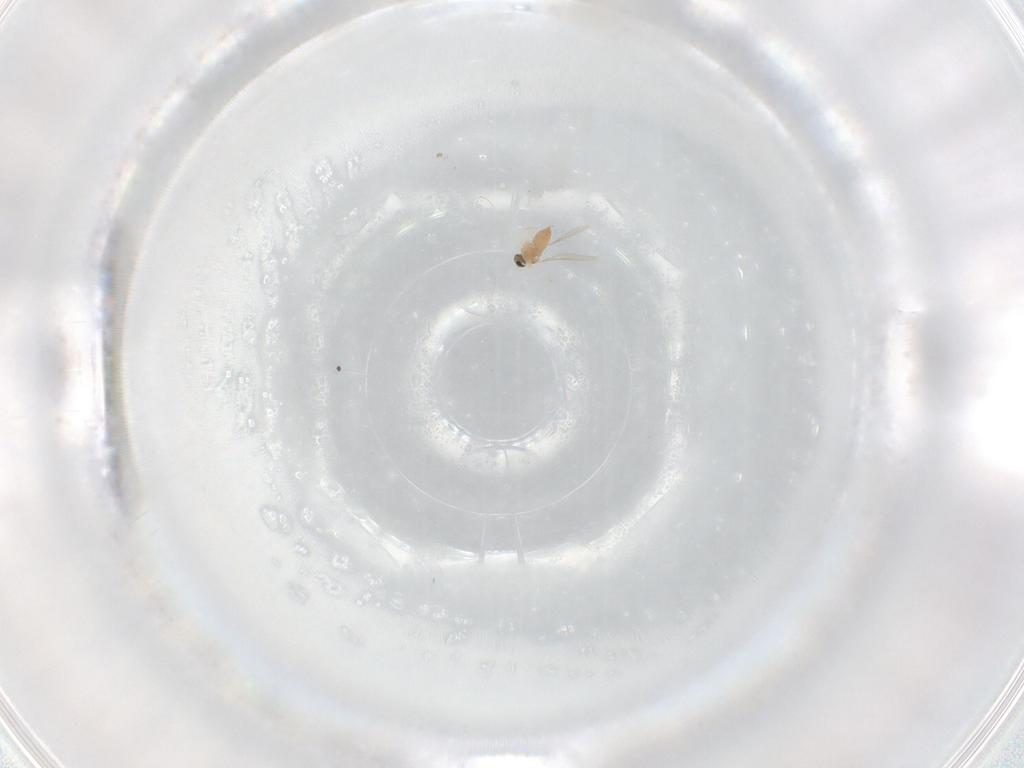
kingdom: Animalia
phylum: Arthropoda
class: Insecta
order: Diptera
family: Cecidomyiidae
